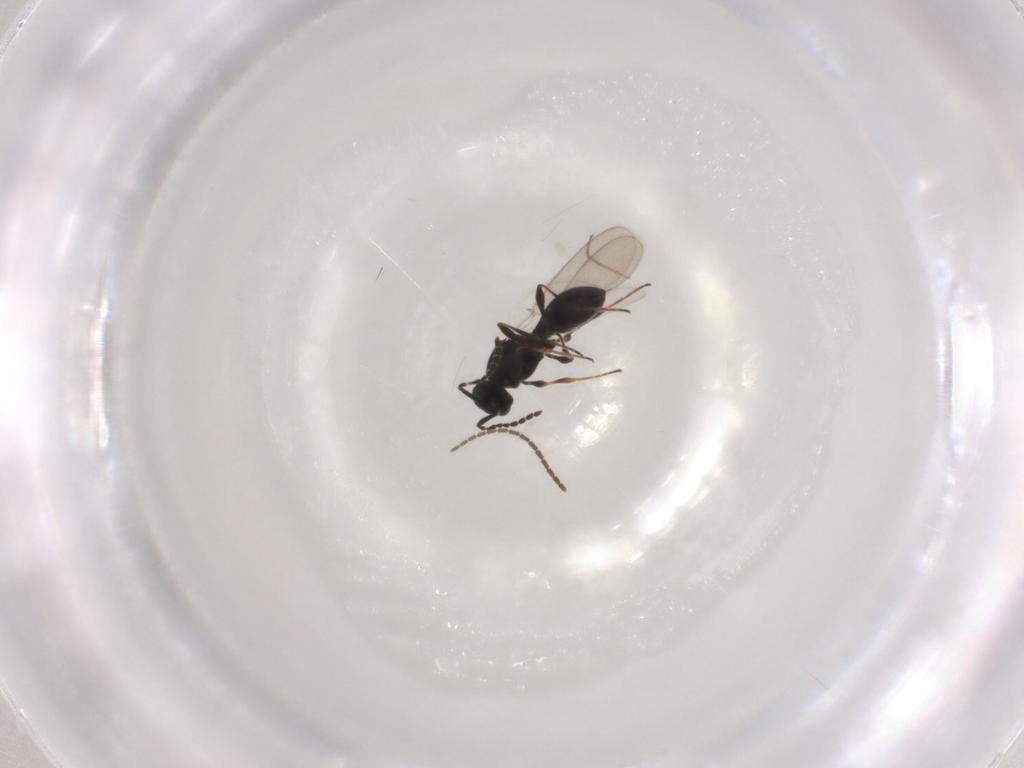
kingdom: Animalia
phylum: Arthropoda
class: Insecta
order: Hymenoptera
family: Platygastridae
